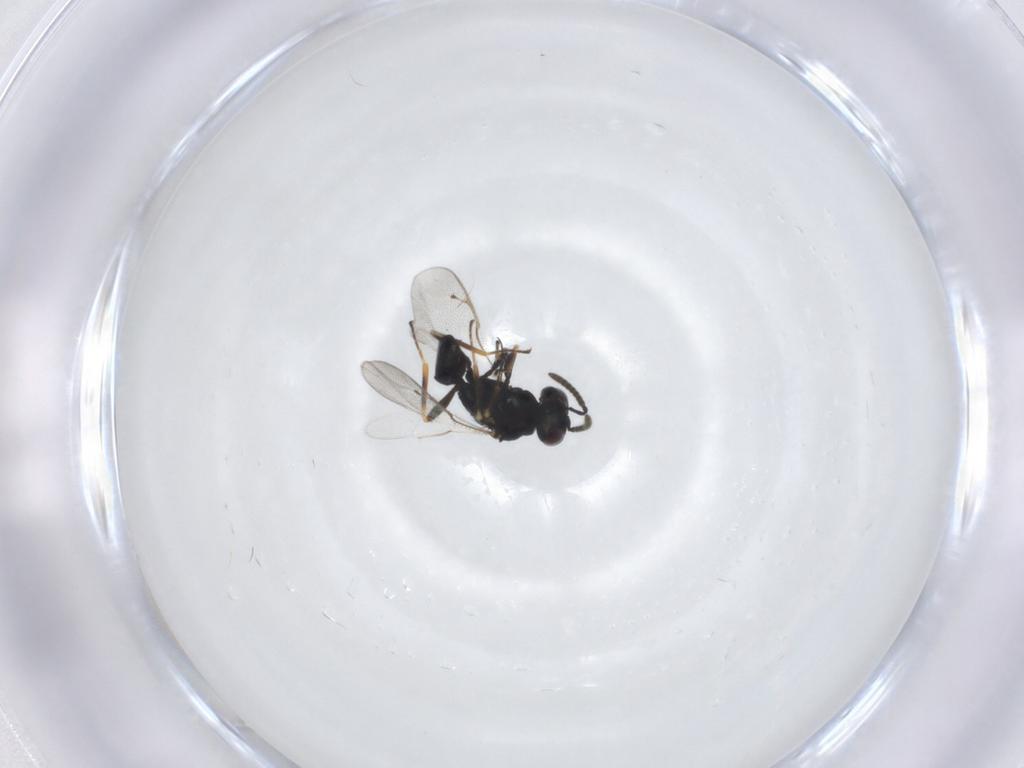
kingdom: Animalia
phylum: Arthropoda
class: Insecta
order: Hymenoptera
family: Pteromalidae
